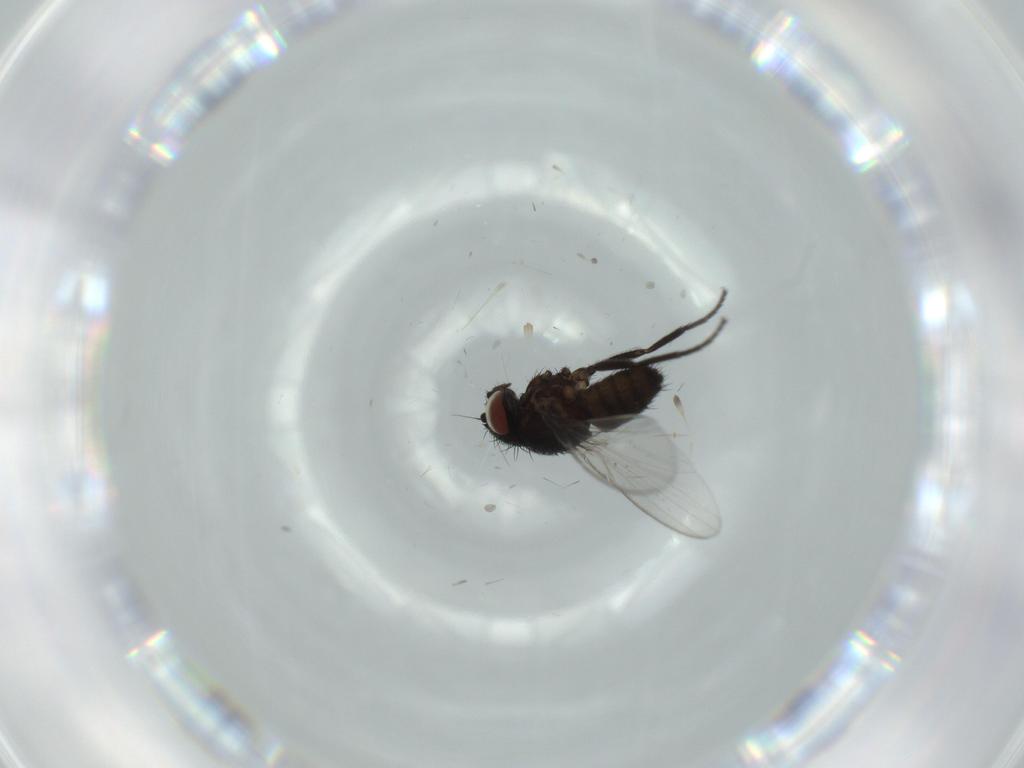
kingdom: Animalia
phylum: Arthropoda
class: Insecta
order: Diptera
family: Milichiidae
